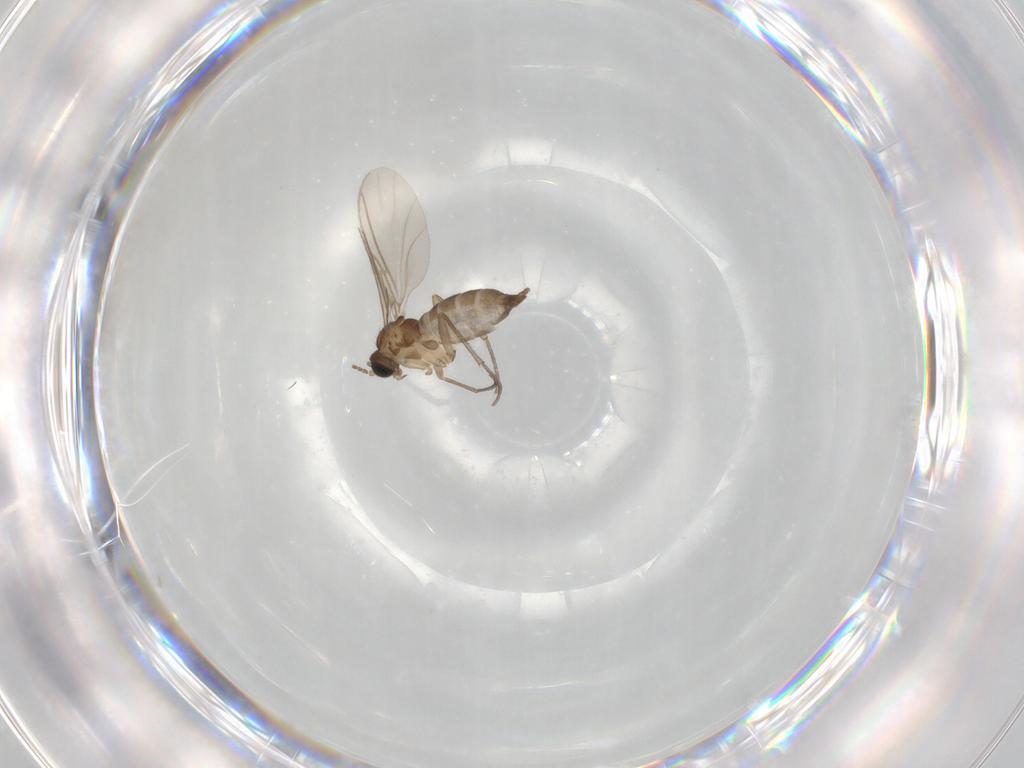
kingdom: Animalia
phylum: Arthropoda
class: Insecta
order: Diptera
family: Sciaridae
